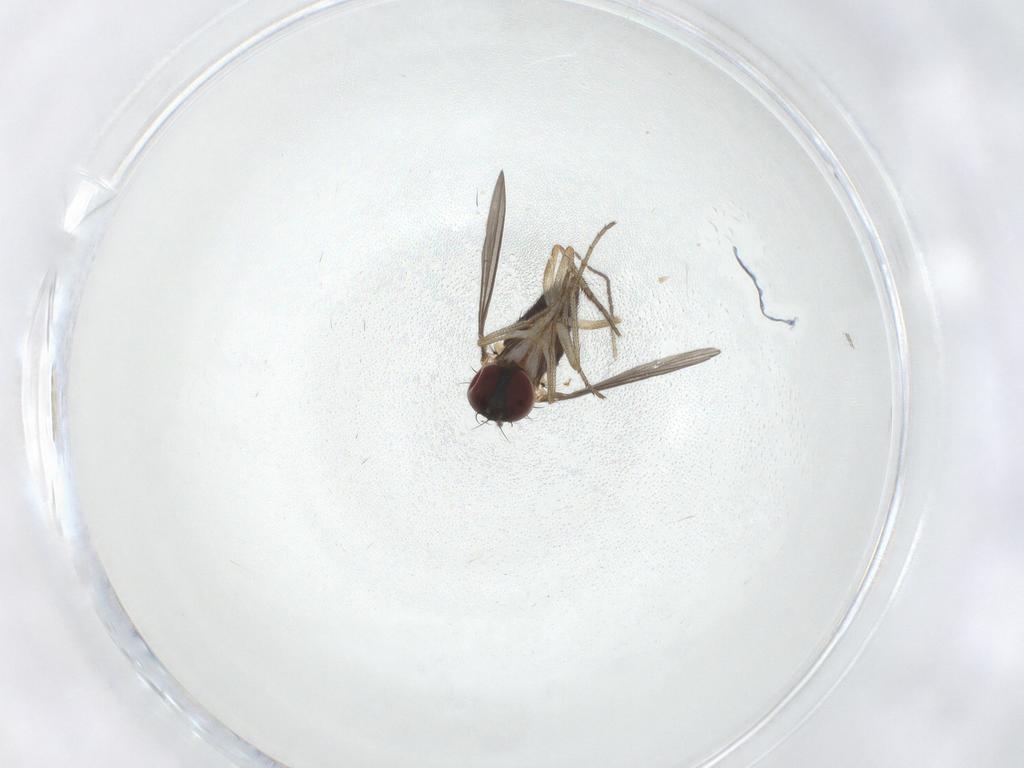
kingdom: Animalia
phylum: Arthropoda
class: Insecta
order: Diptera
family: Dolichopodidae
